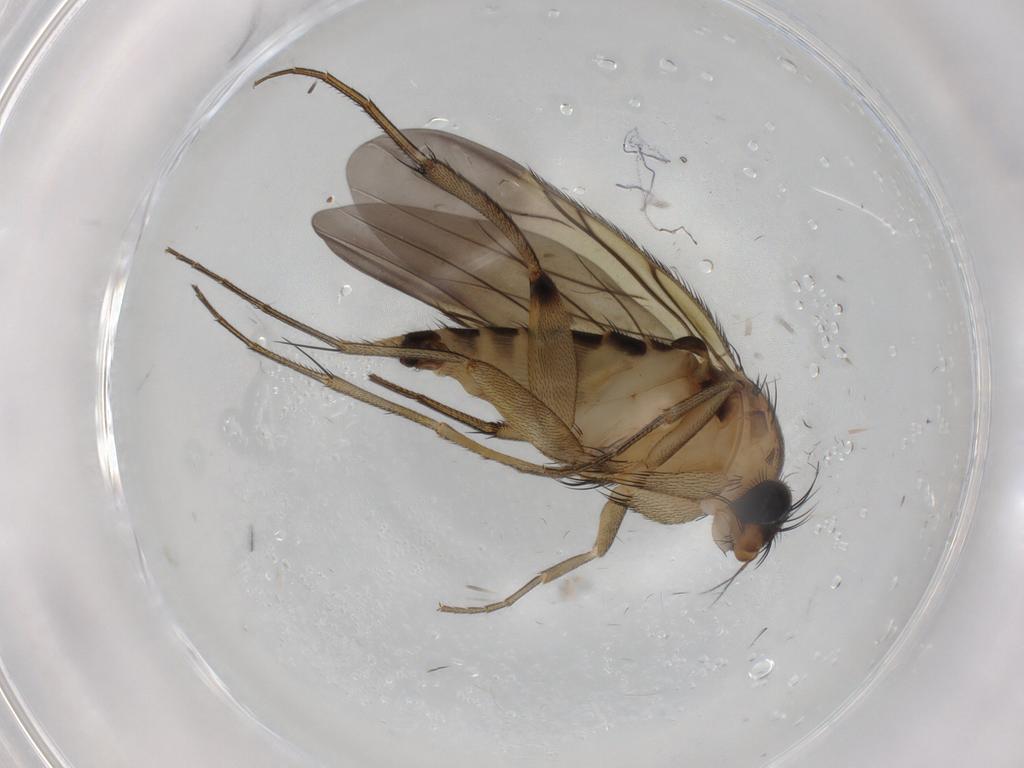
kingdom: Animalia
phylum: Arthropoda
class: Insecta
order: Diptera
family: Phoridae
